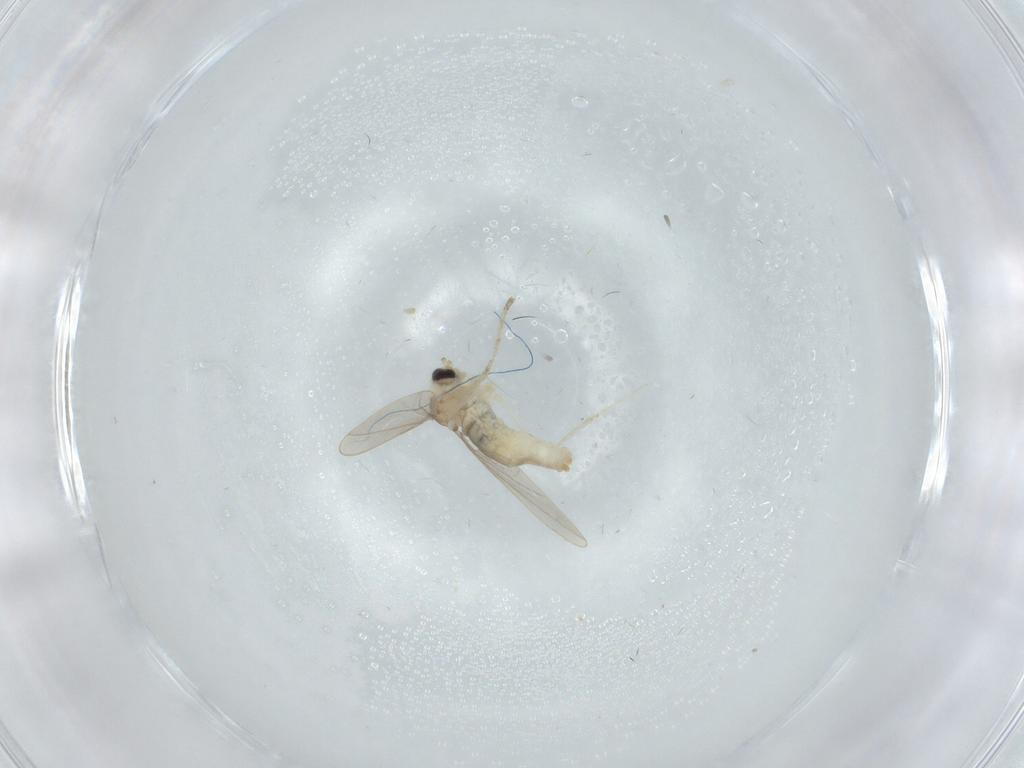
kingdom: Animalia
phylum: Arthropoda
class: Insecta
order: Diptera
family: Cecidomyiidae
